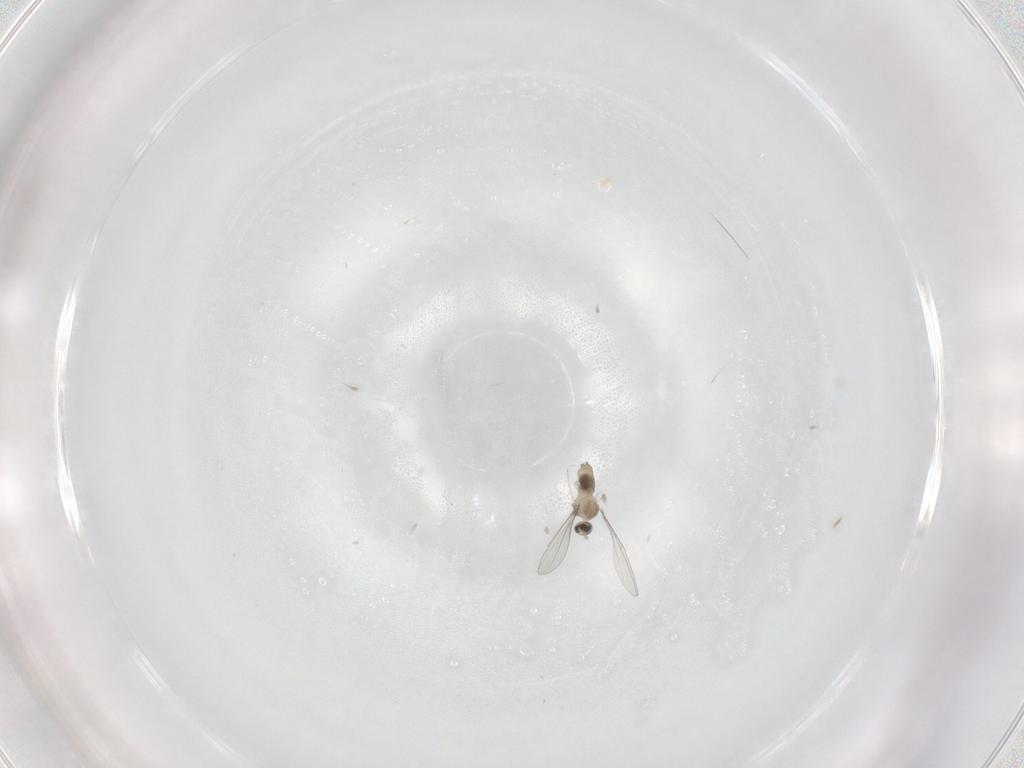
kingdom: Animalia
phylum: Arthropoda
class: Insecta
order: Diptera
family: Cecidomyiidae
